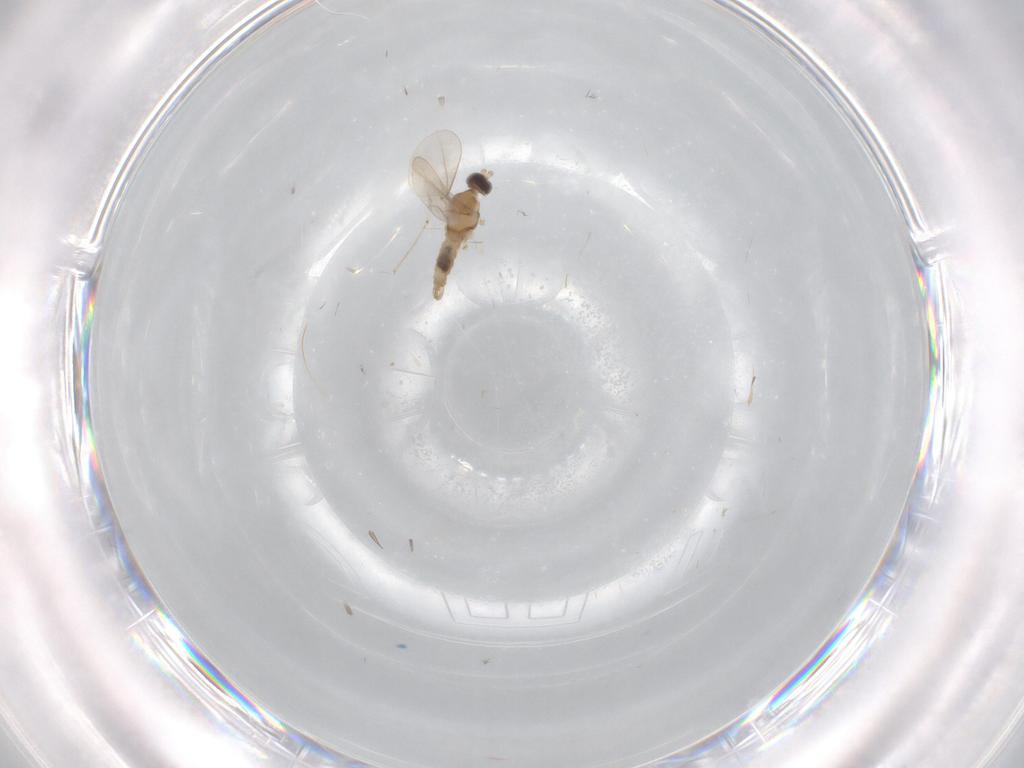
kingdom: Animalia
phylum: Arthropoda
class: Insecta
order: Diptera
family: Cecidomyiidae
